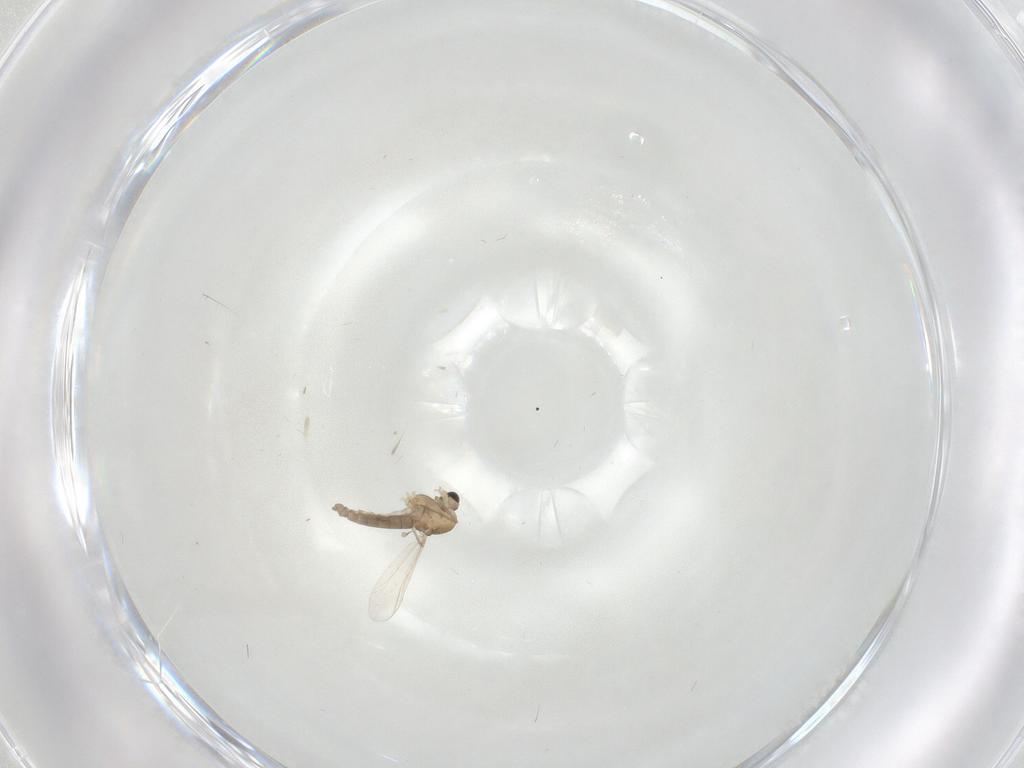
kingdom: Animalia
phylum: Arthropoda
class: Insecta
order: Diptera
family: Chironomidae
